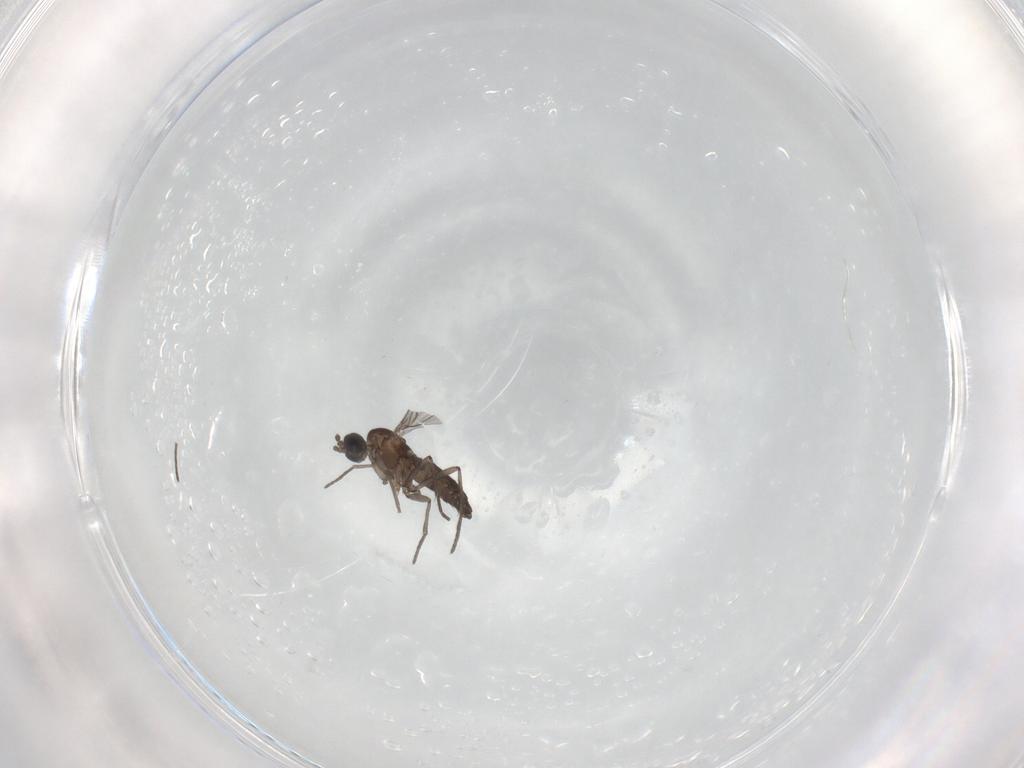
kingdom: Animalia
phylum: Arthropoda
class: Insecta
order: Diptera
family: Sciaridae
